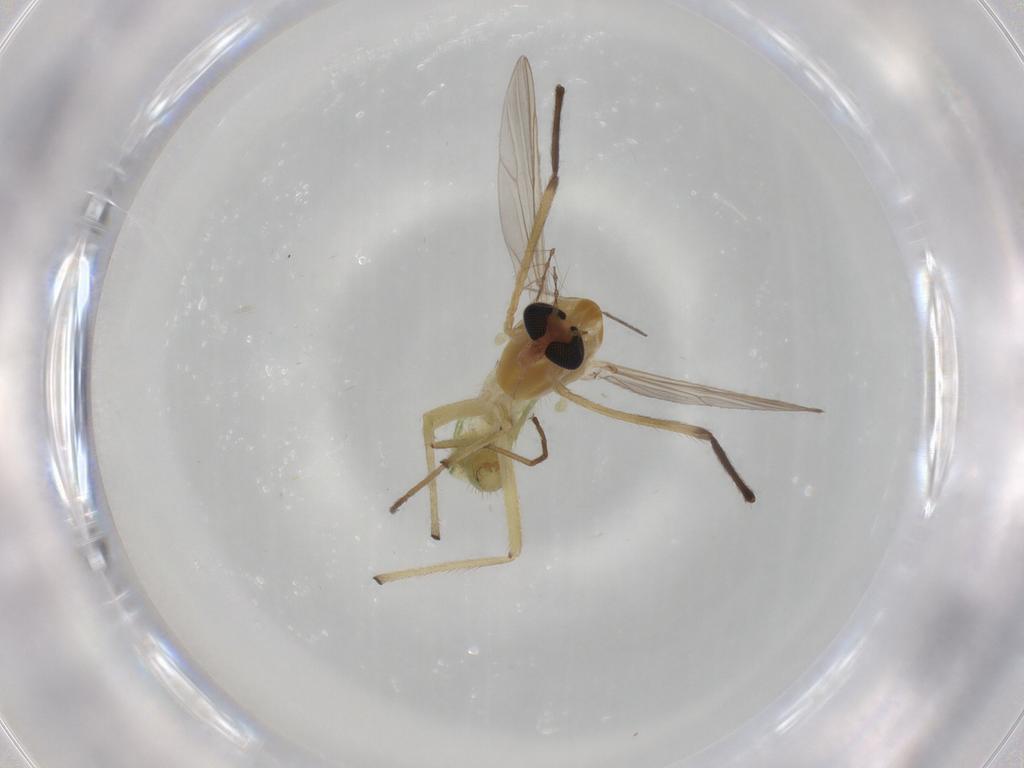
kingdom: Animalia
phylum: Arthropoda
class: Insecta
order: Diptera
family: Chironomidae
